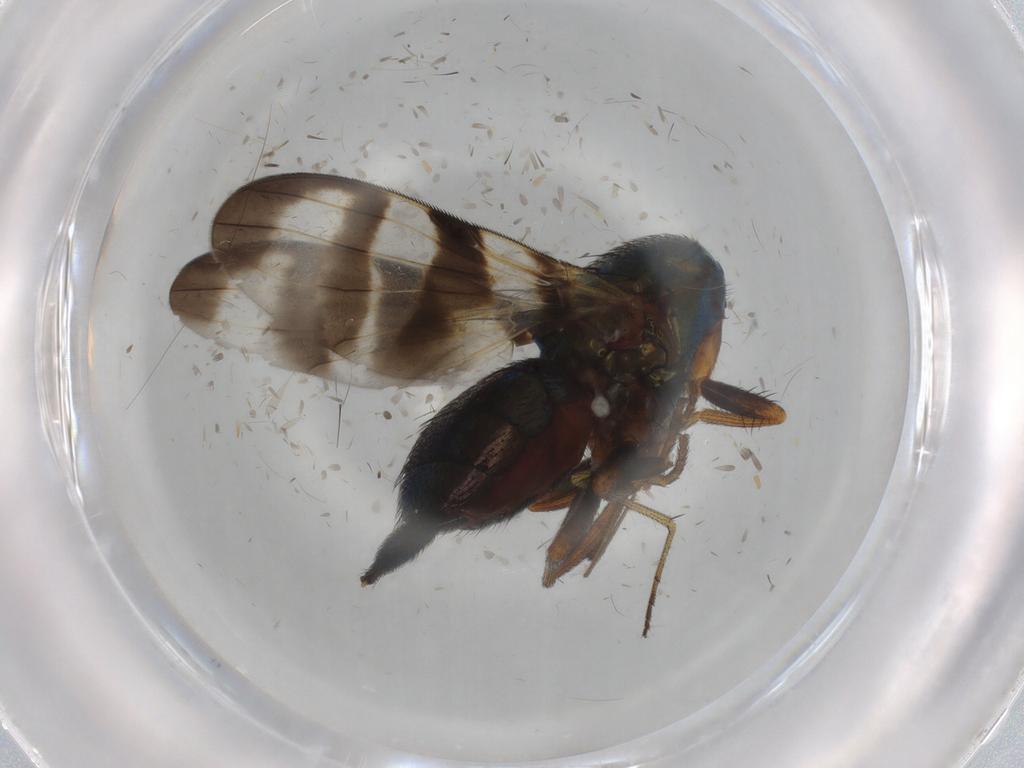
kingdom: Animalia
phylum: Arthropoda
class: Insecta
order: Diptera
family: Ulidiidae
